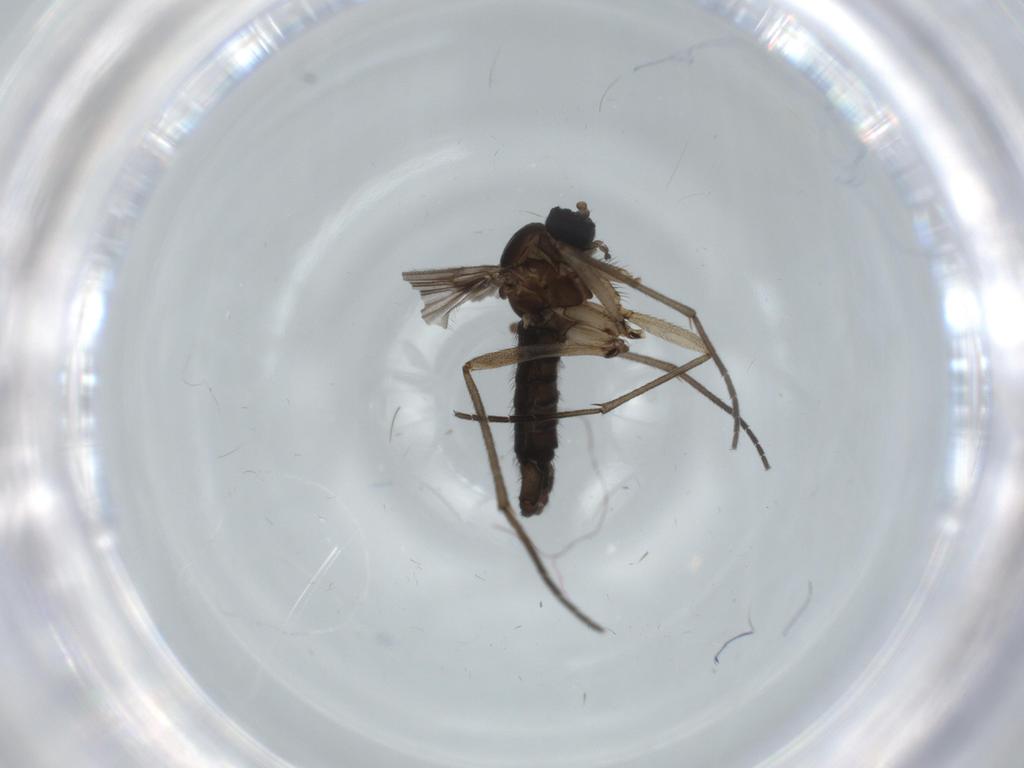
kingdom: Animalia
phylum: Arthropoda
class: Insecta
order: Diptera
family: Sciaridae
